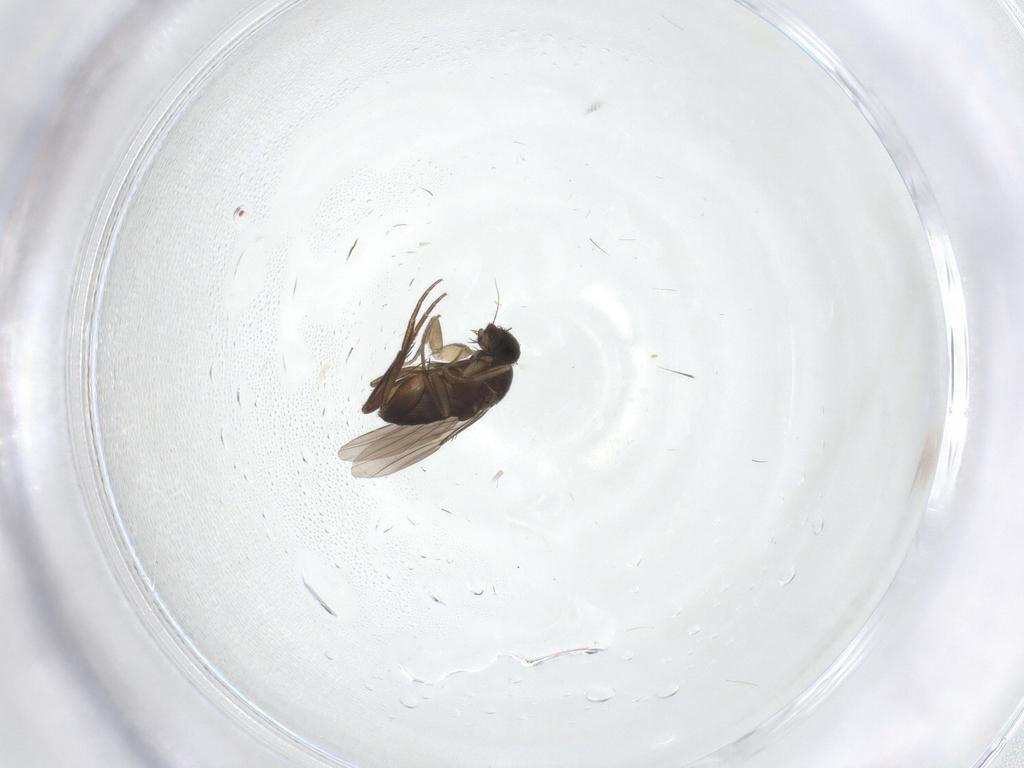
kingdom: Animalia
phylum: Arthropoda
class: Insecta
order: Diptera
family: Phoridae
